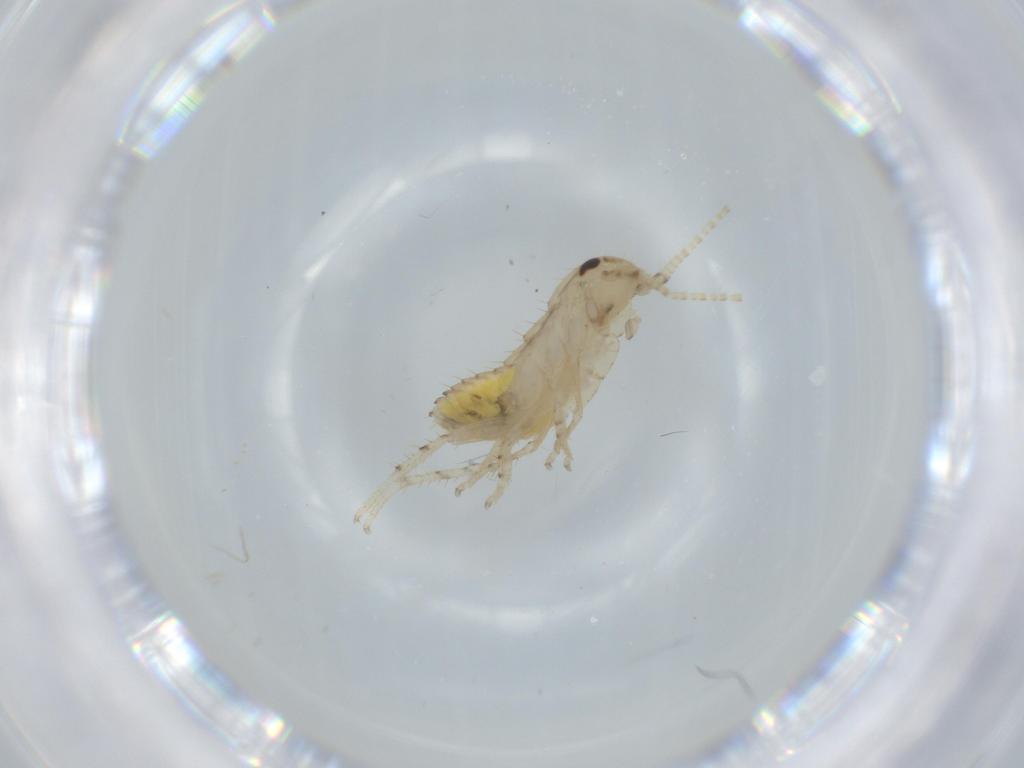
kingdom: Animalia
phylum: Arthropoda
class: Insecta
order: Blattodea
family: Ectobiidae
